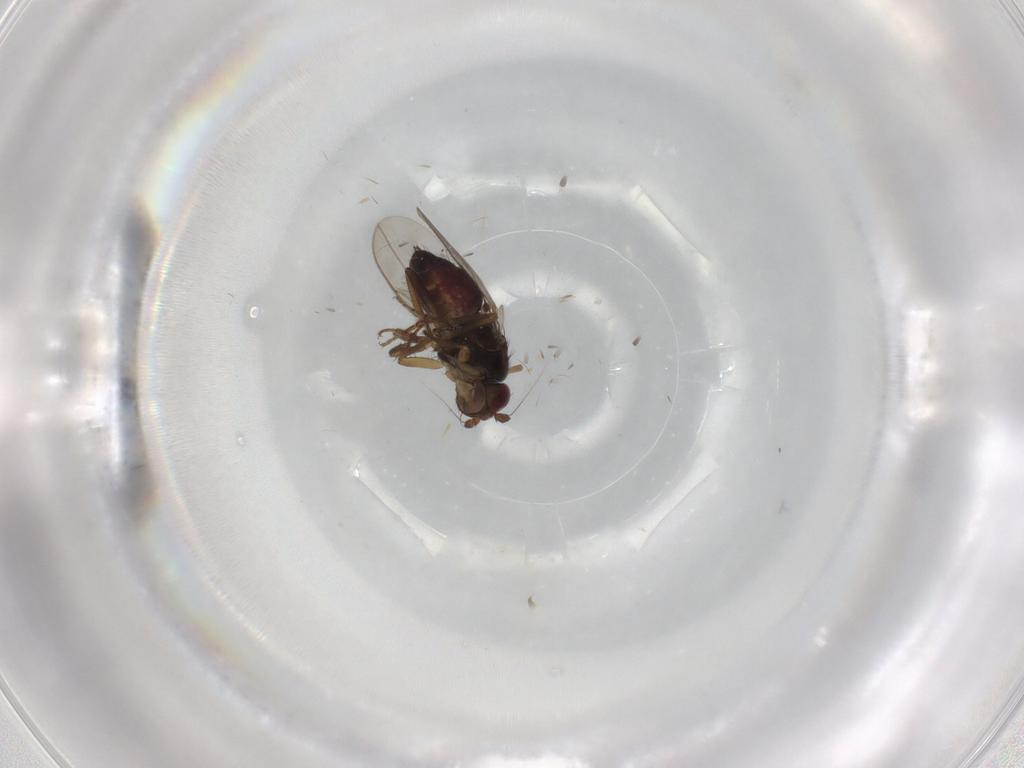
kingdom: Animalia
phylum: Arthropoda
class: Insecta
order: Diptera
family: Sphaeroceridae
